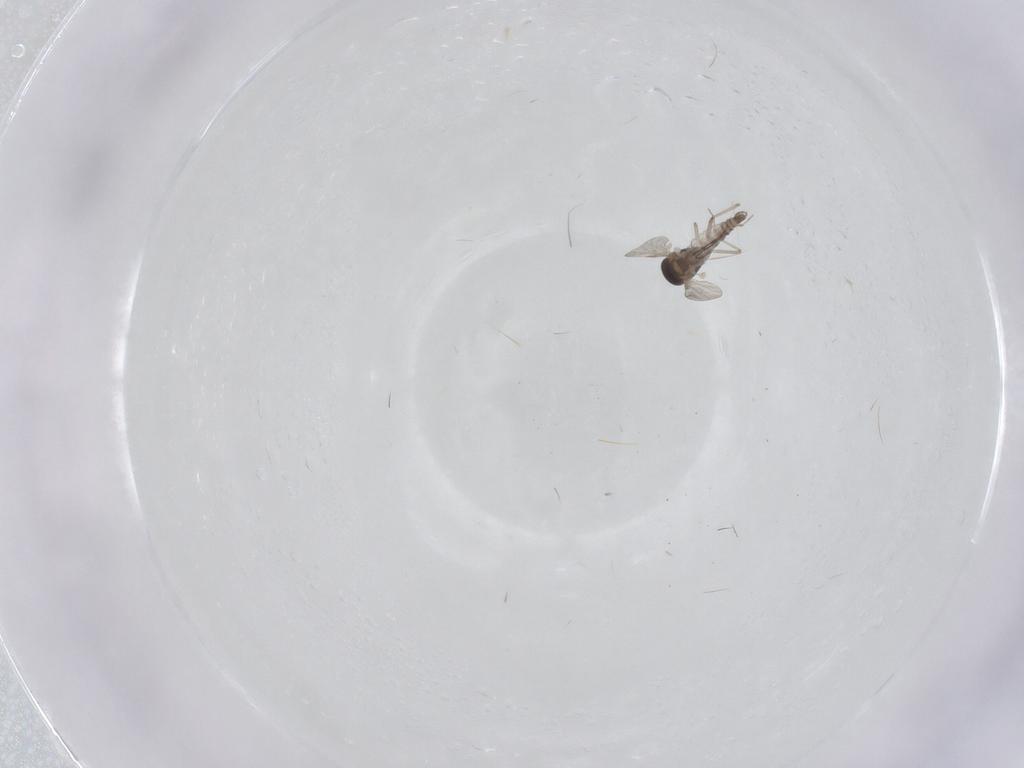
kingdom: Animalia
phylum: Arthropoda
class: Insecta
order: Diptera
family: Ceratopogonidae
